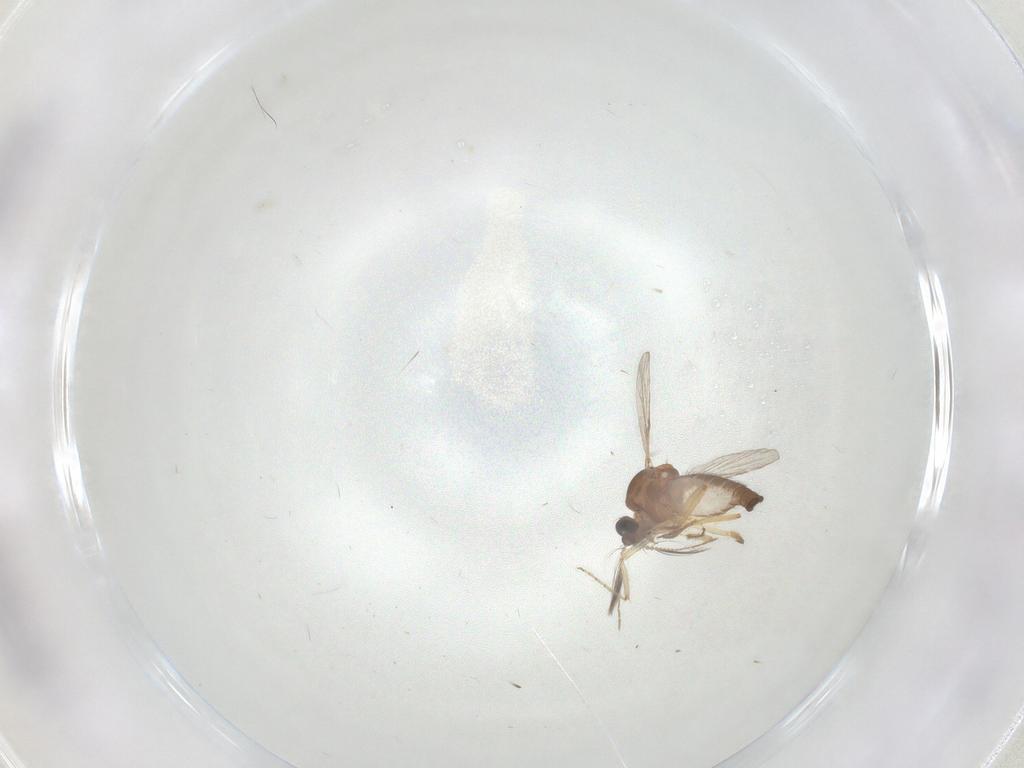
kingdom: Animalia
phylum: Arthropoda
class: Insecta
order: Diptera
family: Ceratopogonidae
